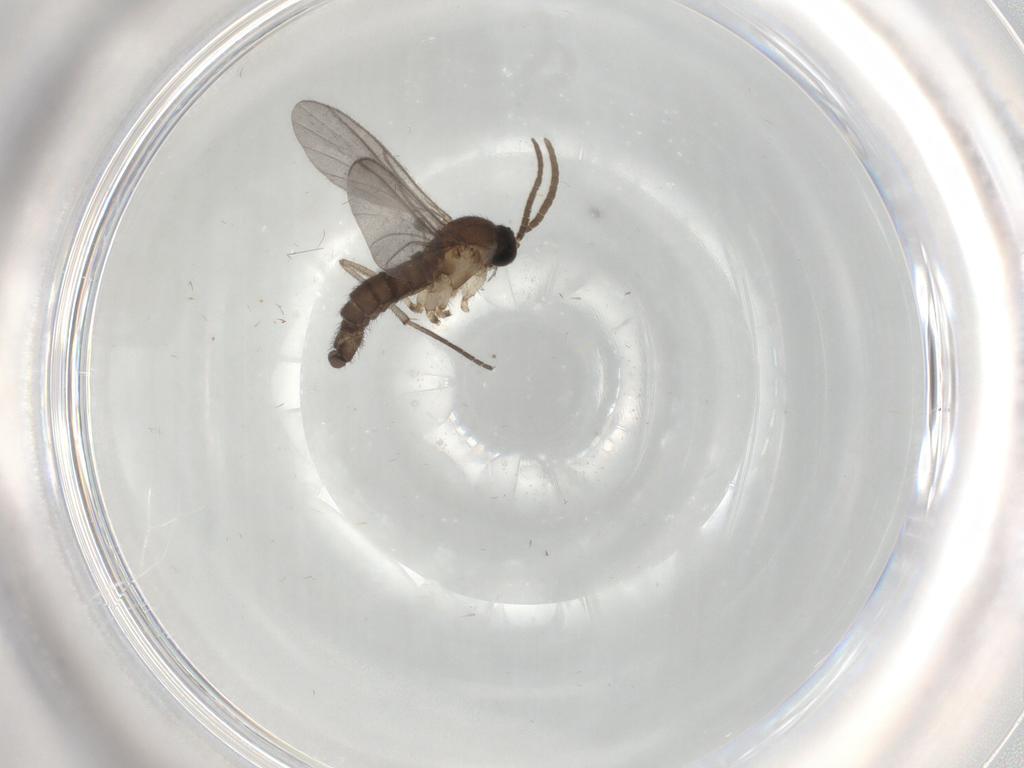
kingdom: Animalia
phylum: Arthropoda
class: Insecta
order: Diptera
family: Cecidomyiidae
